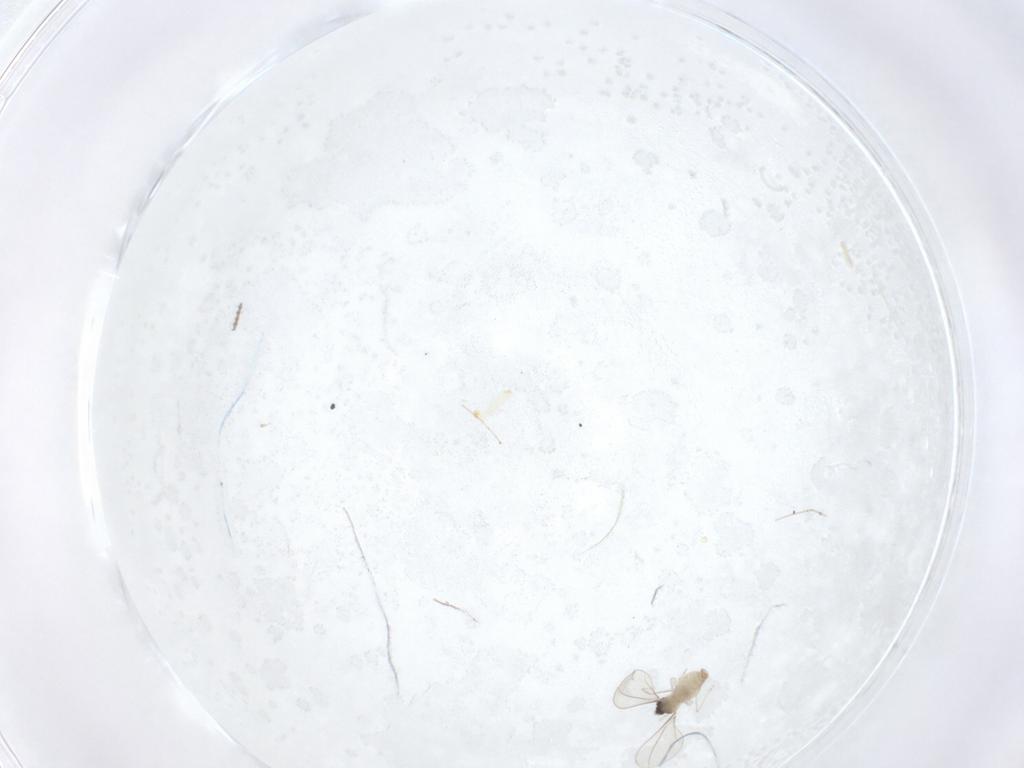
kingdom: Animalia
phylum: Arthropoda
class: Insecta
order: Diptera
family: Cecidomyiidae
